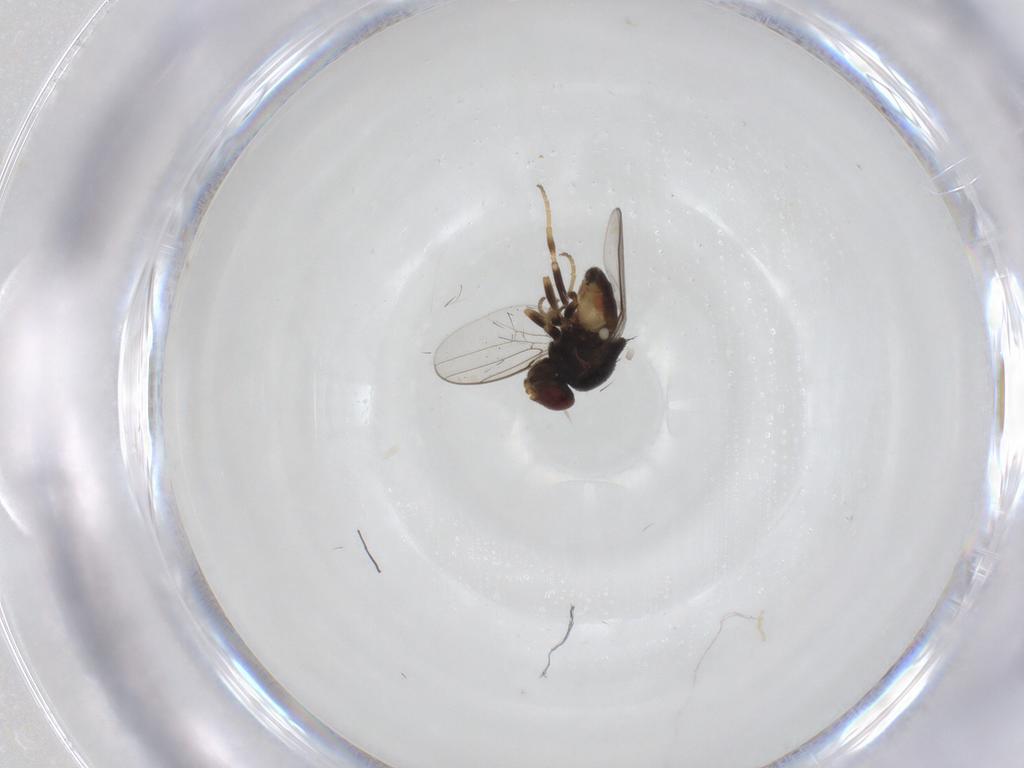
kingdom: Animalia
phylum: Arthropoda
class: Insecta
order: Diptera
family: Chloropidae
